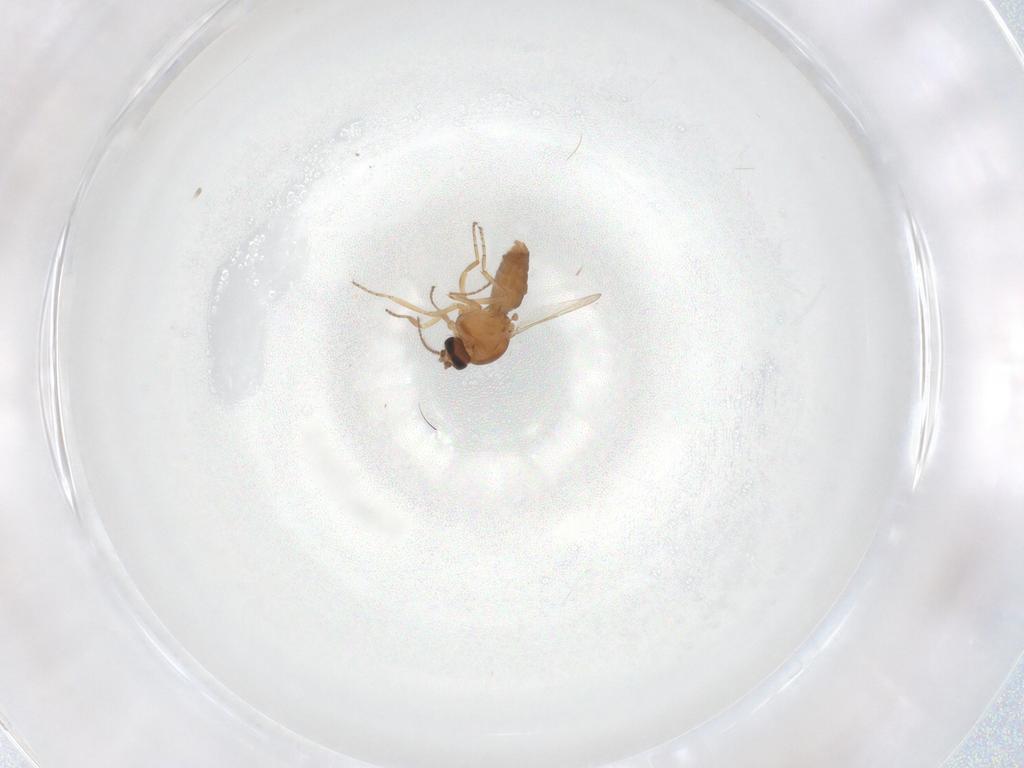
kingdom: Animalia
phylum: Arthropoda
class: Insecta
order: Diptera
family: Ceratopogonidae
